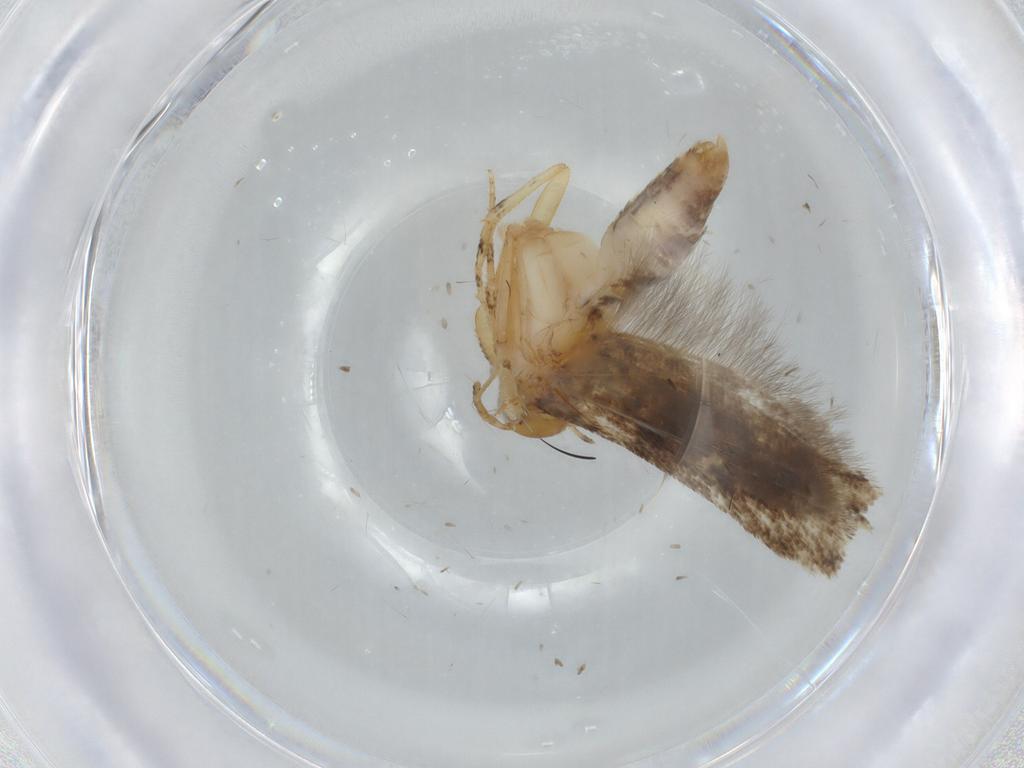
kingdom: Animalia
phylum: Arthropoda
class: Insecta
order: Lepidoptera
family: Gelechiidae
